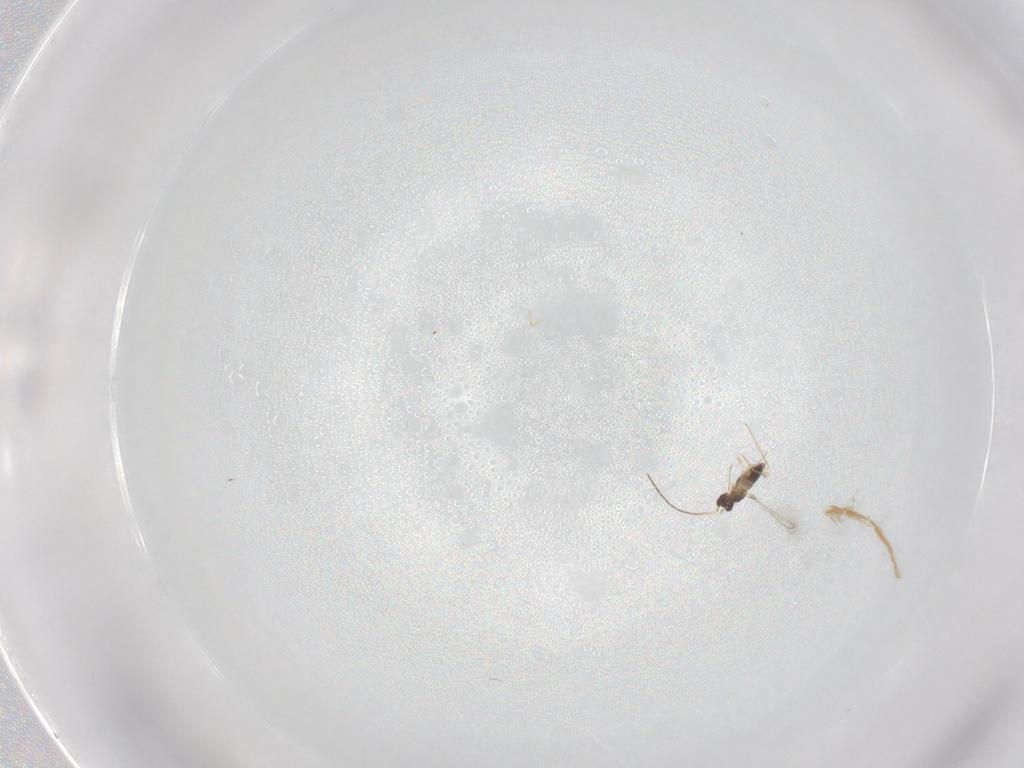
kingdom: Animalia
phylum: Arthropoda
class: Insecta
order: Hymenoptera
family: Mymaridae
